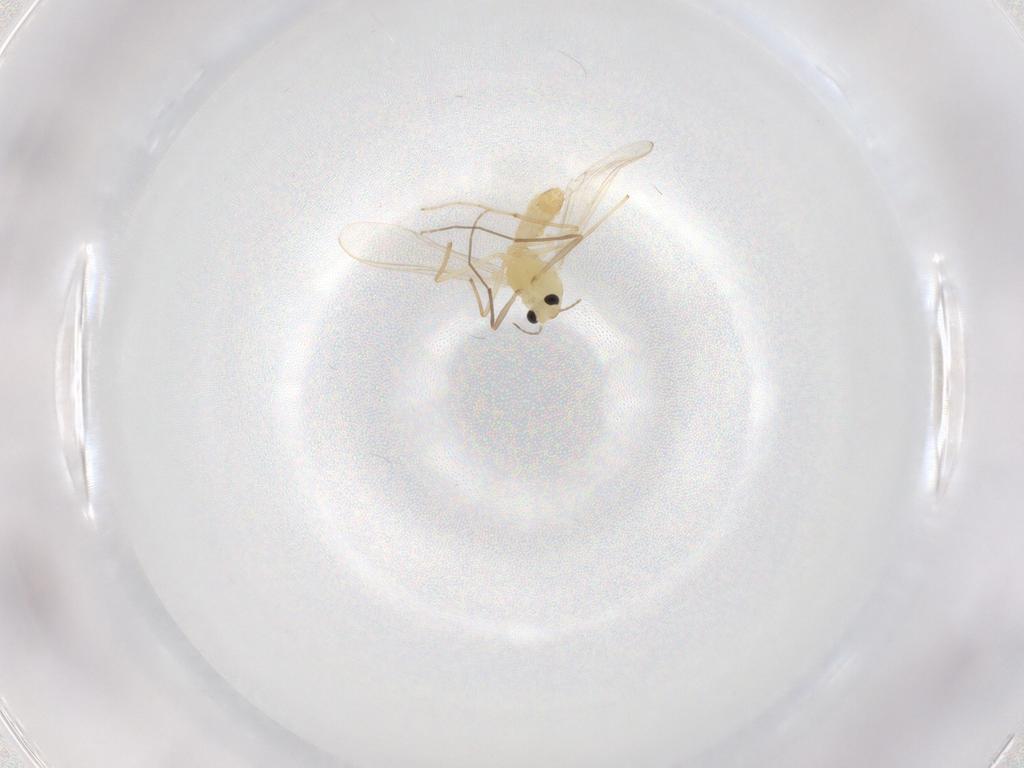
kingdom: Animalia
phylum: Arthropoda
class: Insecta
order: Diptera
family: Chironomidae
